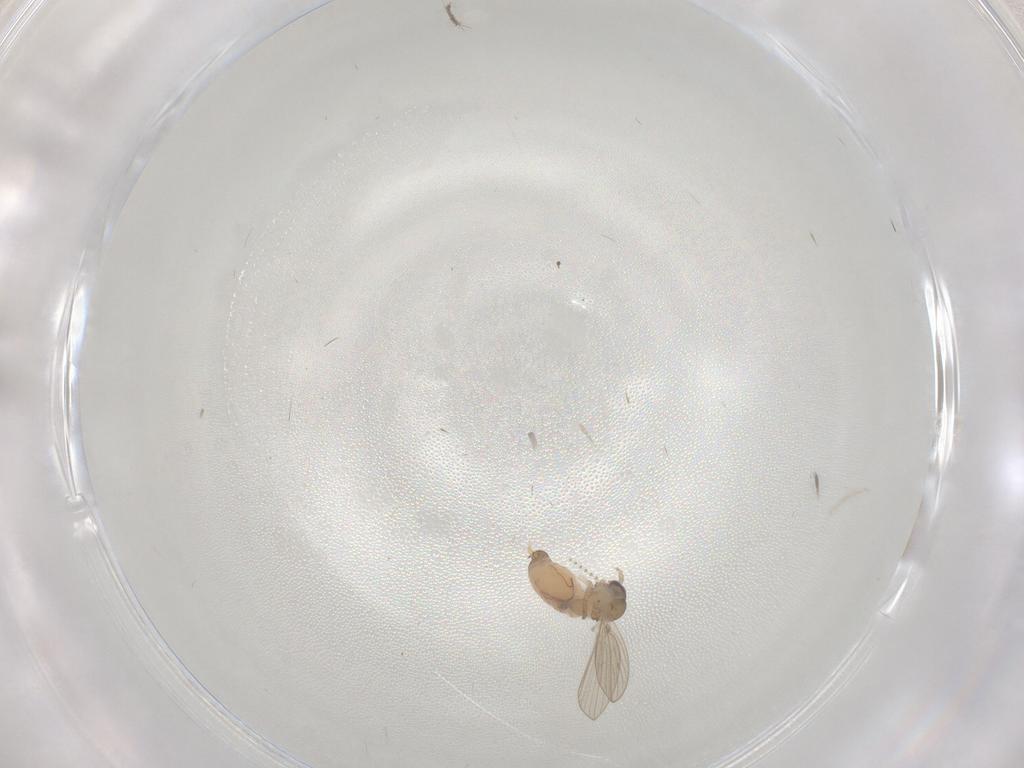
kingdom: Animalia
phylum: Arthropoda
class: Insecta
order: Diptera
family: Psychodidae
